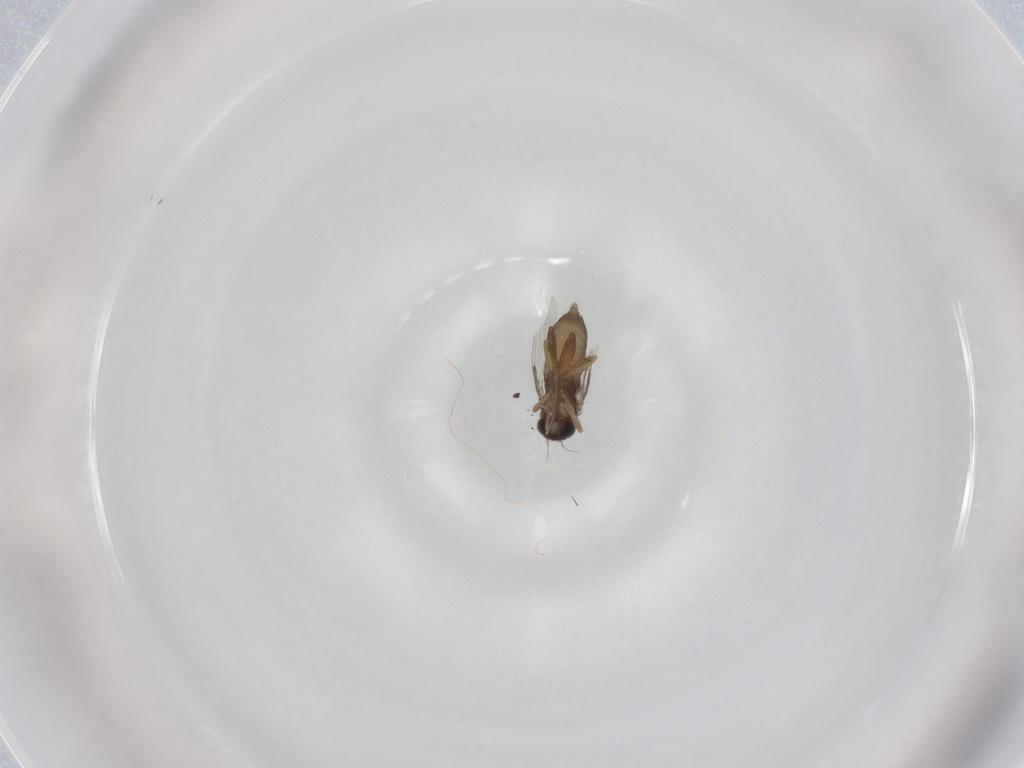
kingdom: Animalia
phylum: Arthropoda
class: Insecta
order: Diptera
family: Phoridae
